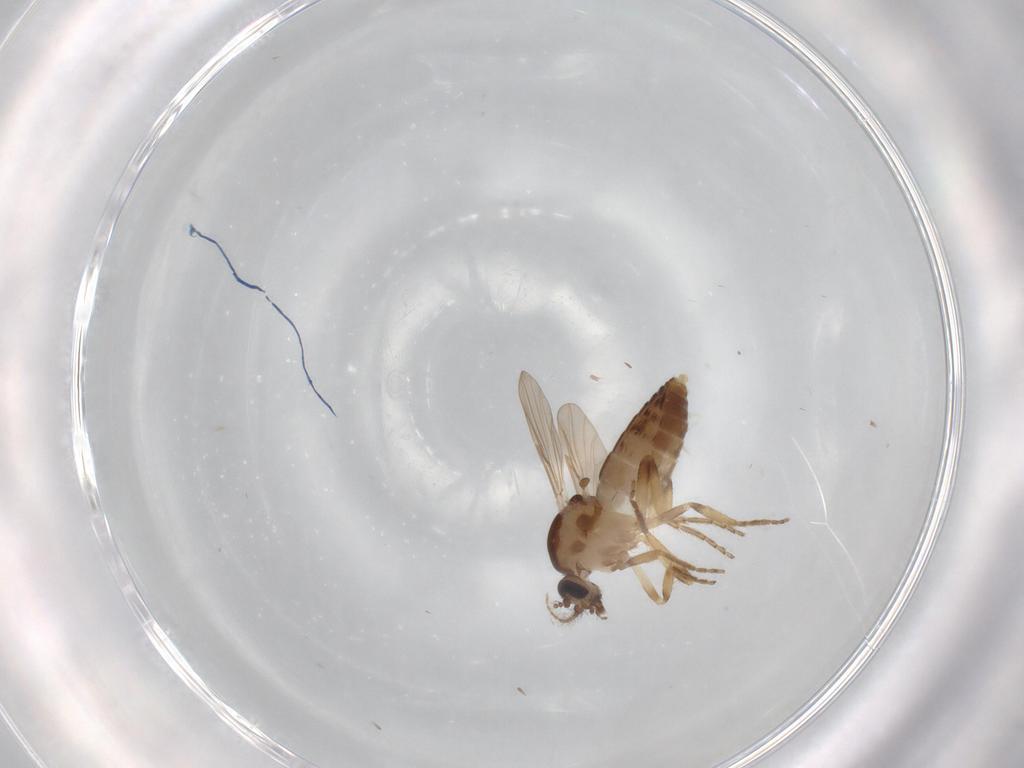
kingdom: Animalia
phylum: Arthropoda
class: Insecta
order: Diptera
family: Ceratopogonidae
